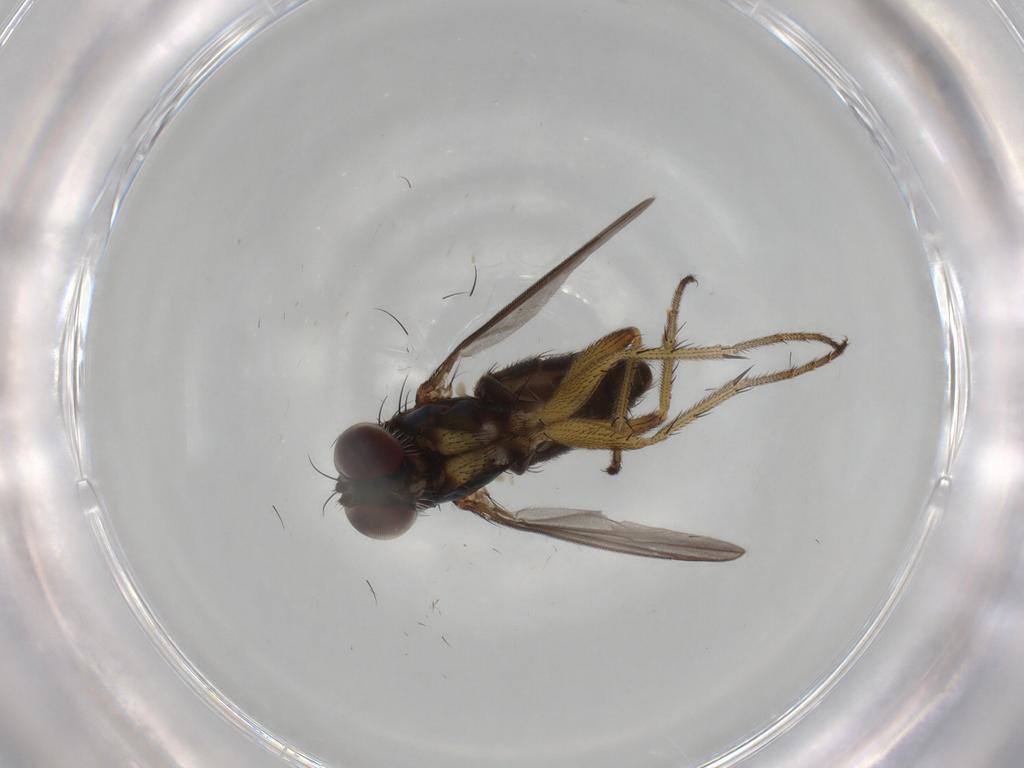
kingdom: Animalia
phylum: Arthropoda
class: Insecta
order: Diptera
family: Dolichopodidae
